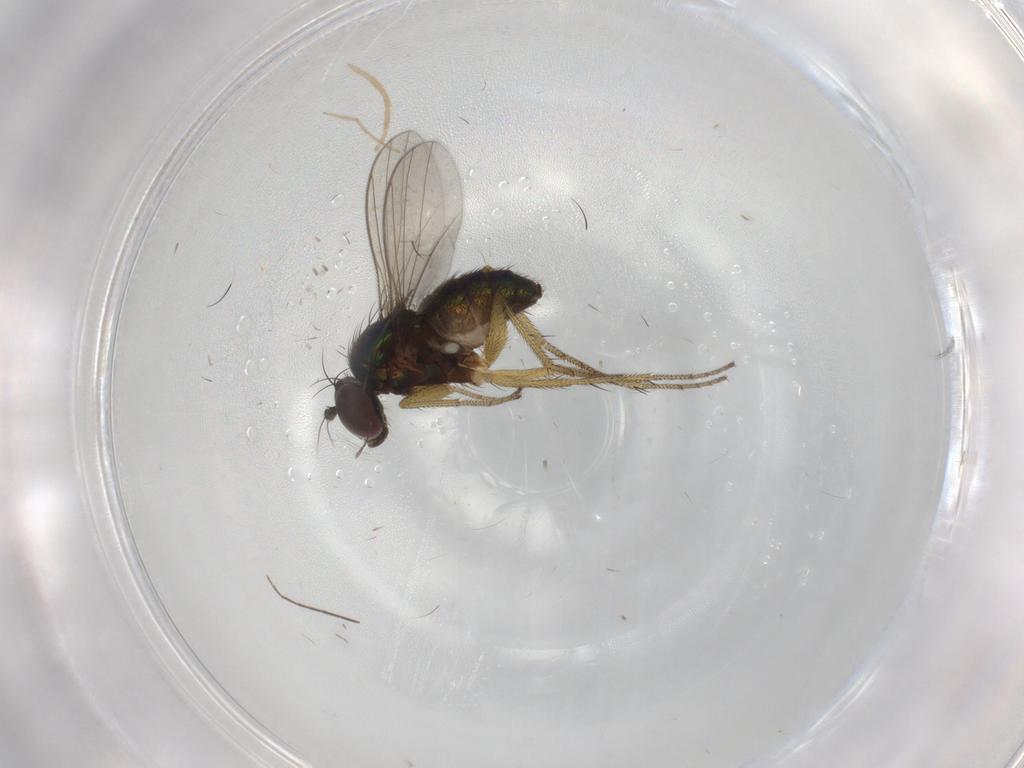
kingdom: Animalia
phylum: Arthropoda
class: Insecta
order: Diptera
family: Chironomidae
